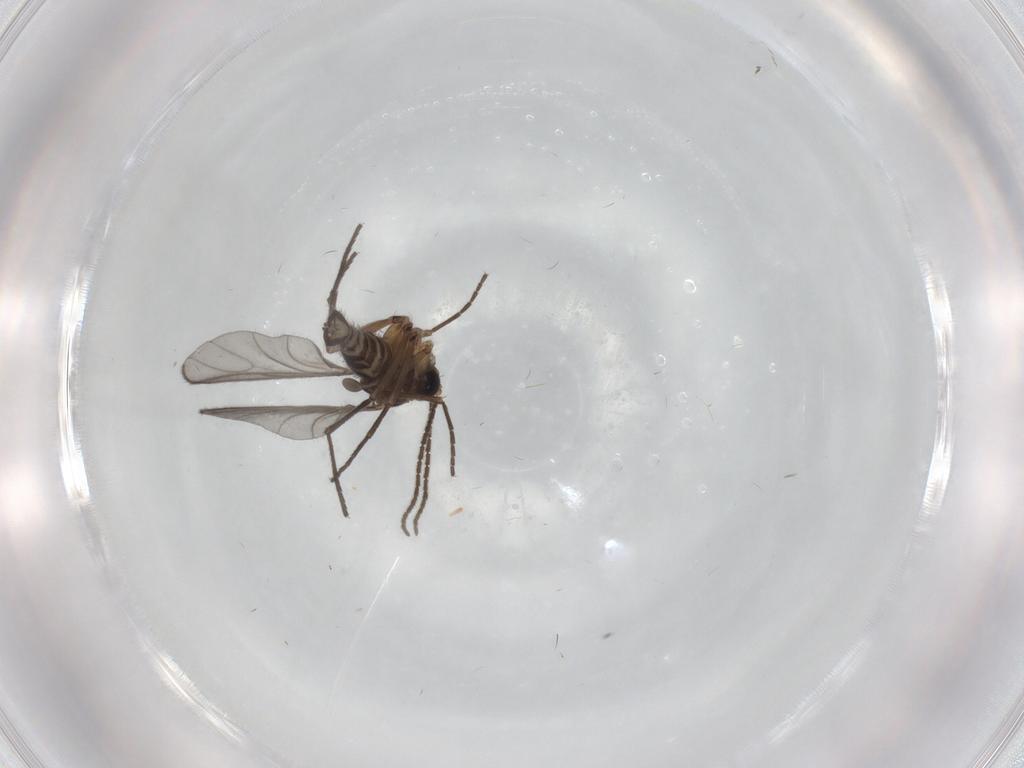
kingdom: Animalia
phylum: Arthropoda
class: Insecta
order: Diptera
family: Sciaridae
